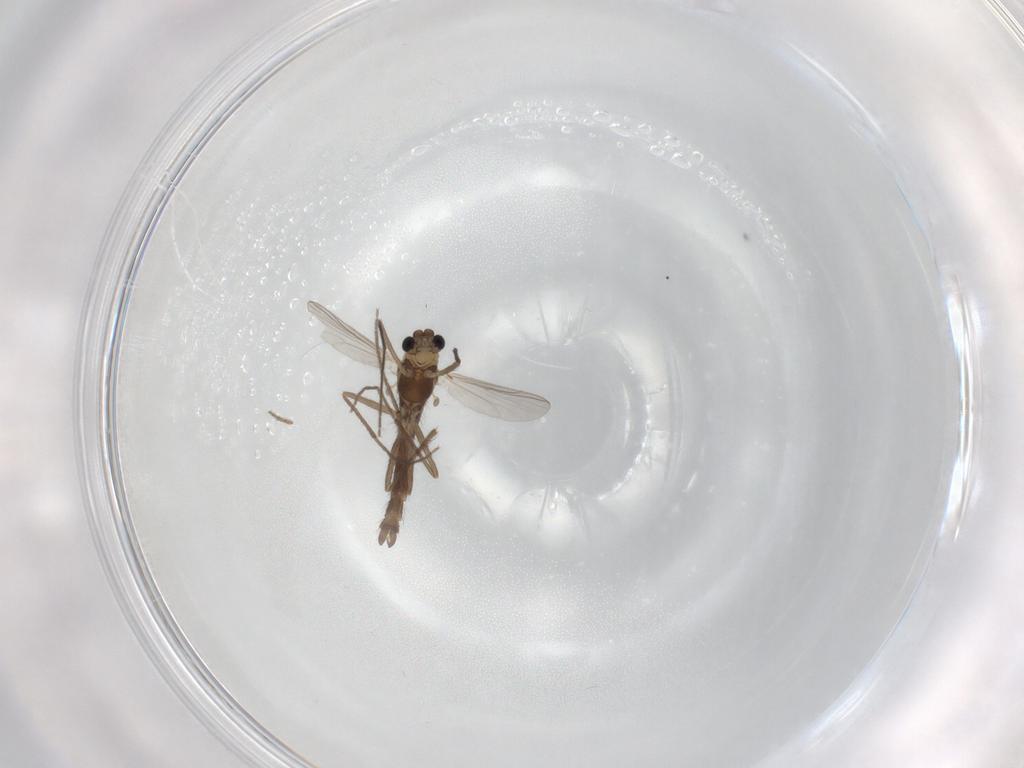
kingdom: Animalia
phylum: Arthropoda
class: Insecta
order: Diptera
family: Chironomidae
